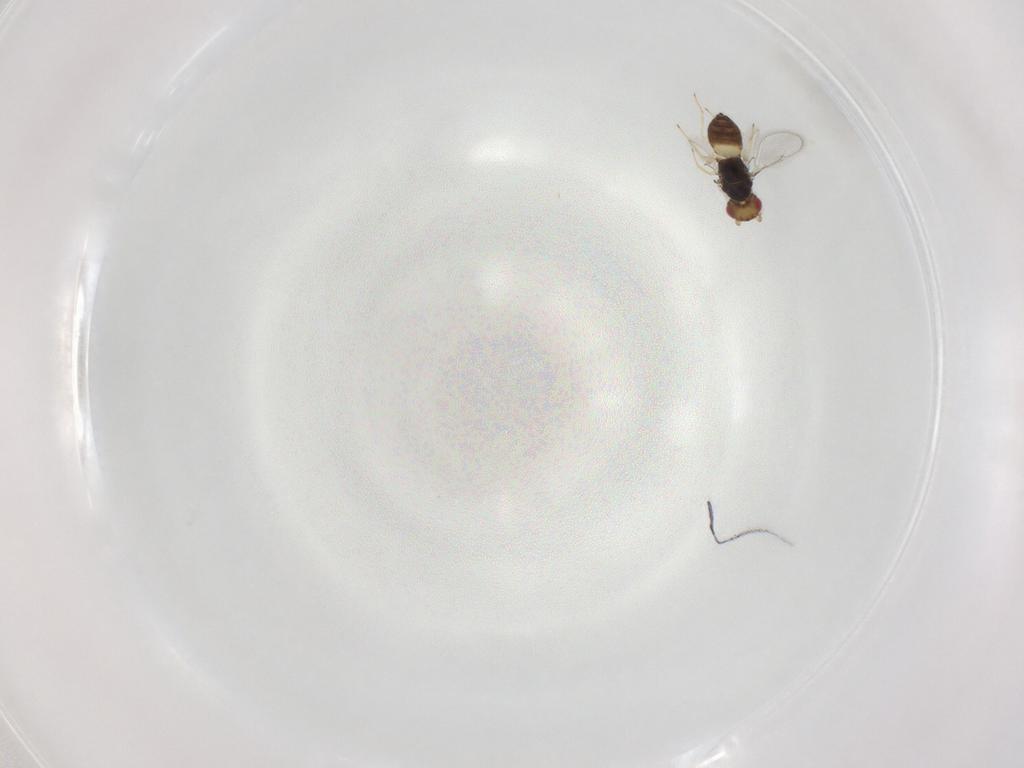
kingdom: Animalia
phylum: Arthropoda
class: Insecta
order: Hymenoptera
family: Eulophidae
